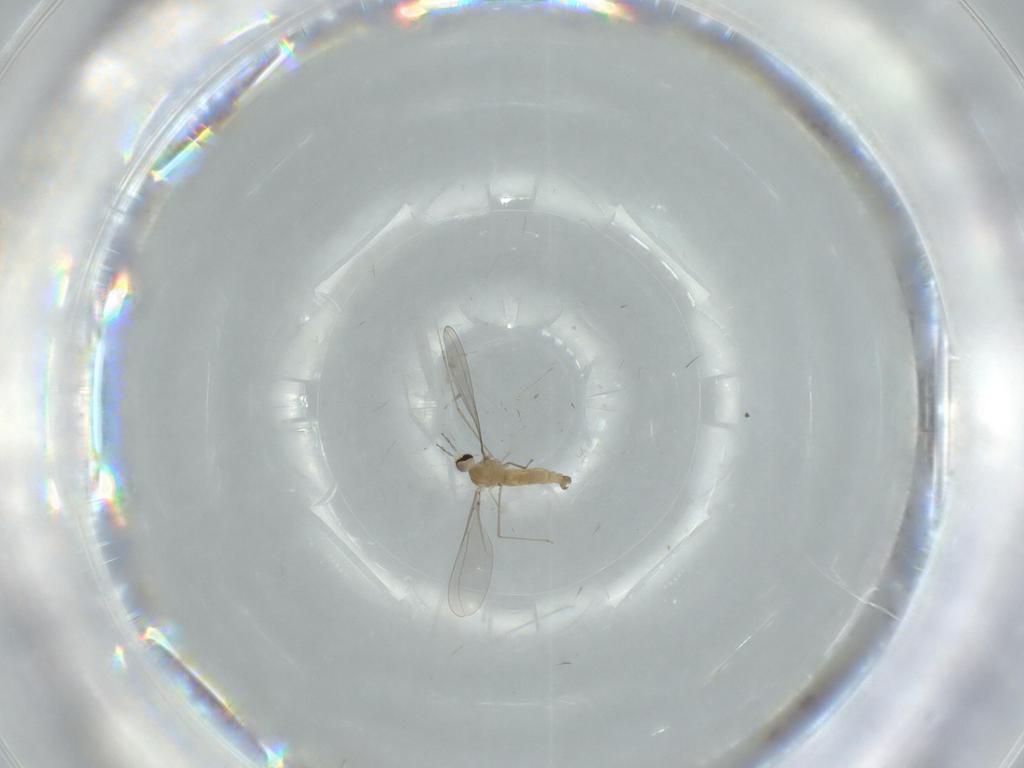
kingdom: Animalia
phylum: Arthropoda
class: Insecta
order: Diptera
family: Cecidomyiidae
